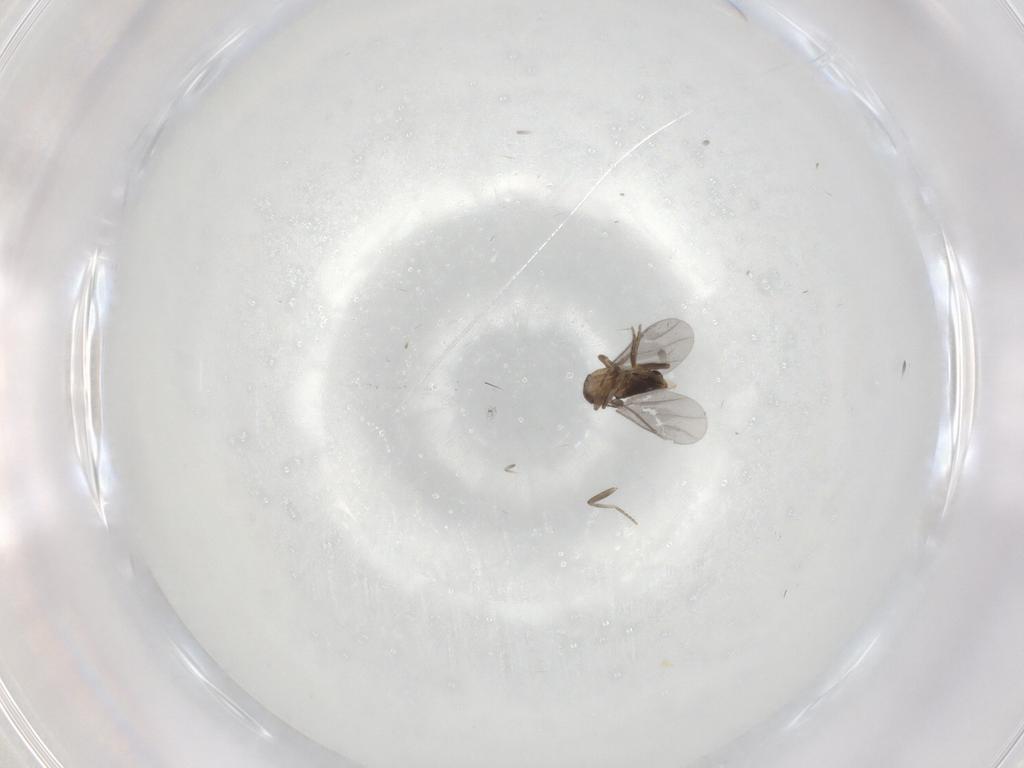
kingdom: Animalia
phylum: Arthropoda
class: Insecta
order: Diptera
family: Cecidomyiidae
